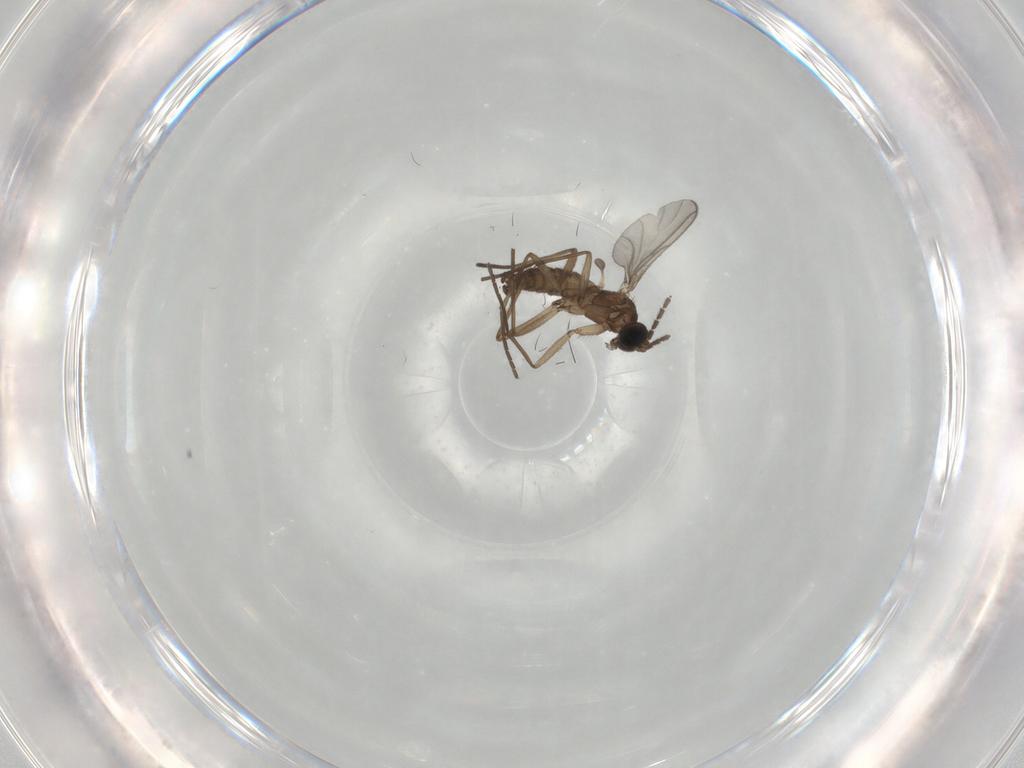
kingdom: Animalia
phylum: Arthropoda
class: Insecta
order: Diptera
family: Sciaridae
